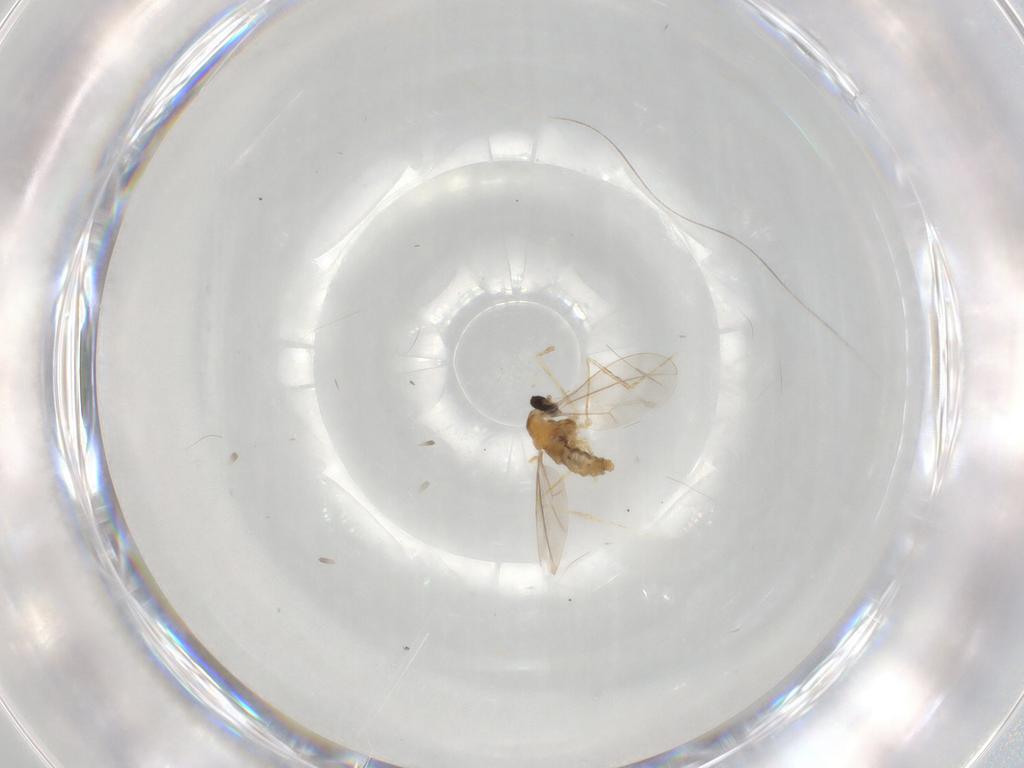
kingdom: Animalia
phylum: Arthropoda
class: Insecta
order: Diptera
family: Cecidomyiidae
